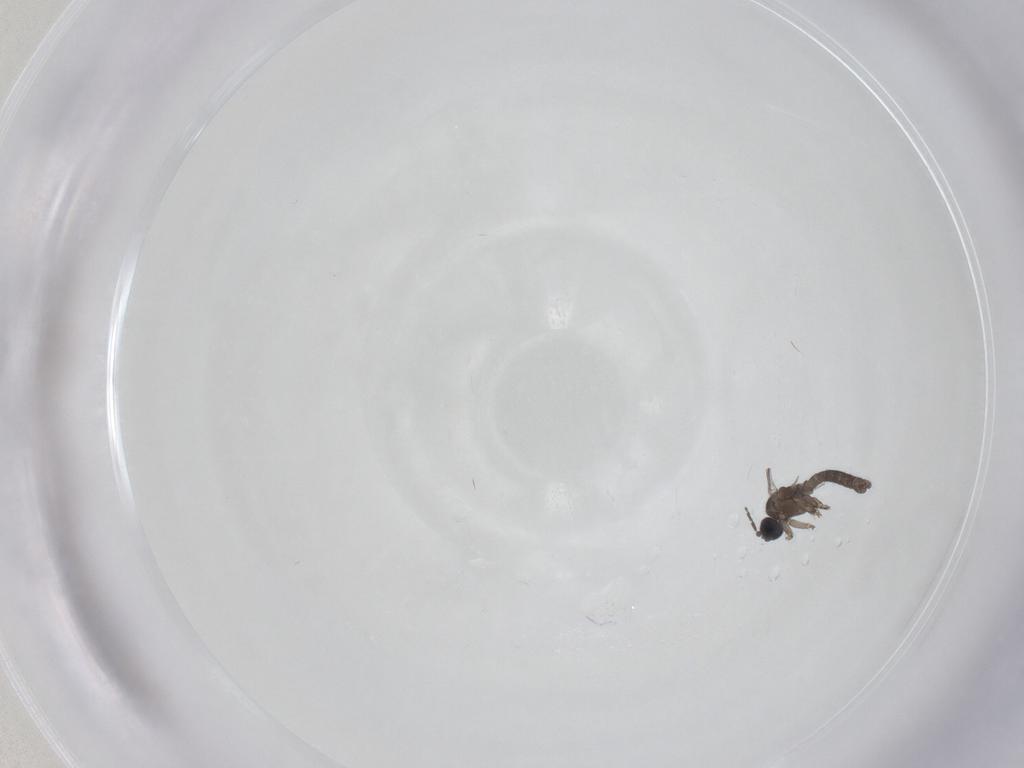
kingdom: Animalia
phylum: Arthropoda
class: Insecta
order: Diptera
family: Sciaridae
